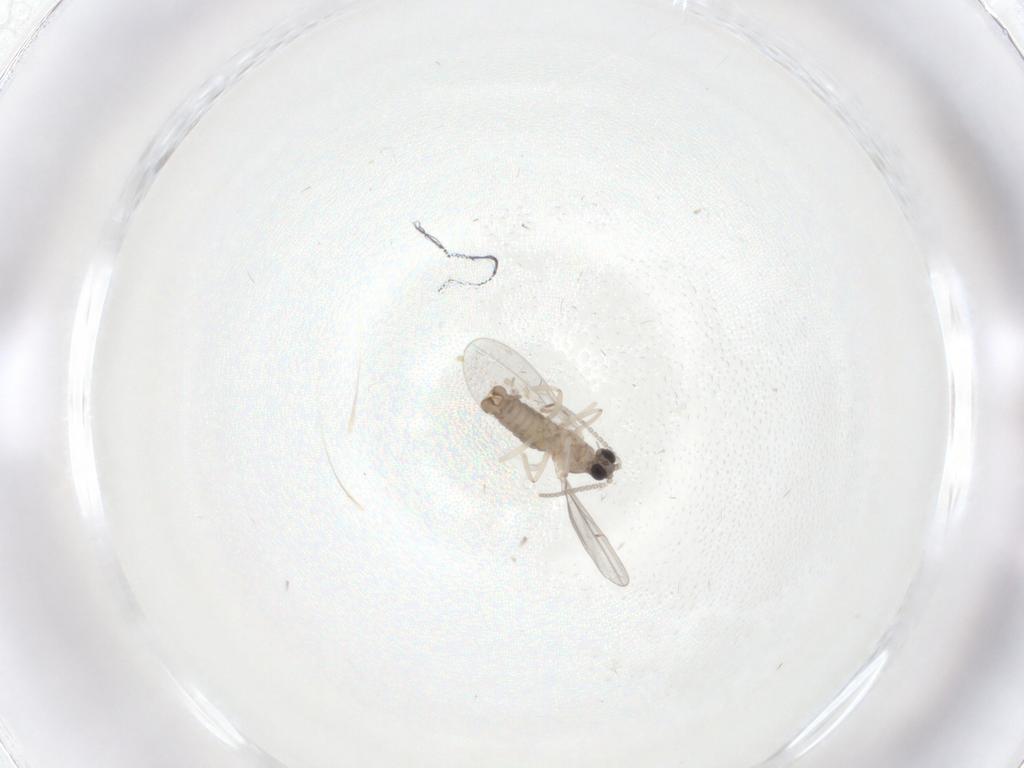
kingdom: Animalia
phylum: Arthropoda
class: Insecta
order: Diptera
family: Cecidomyiidae
